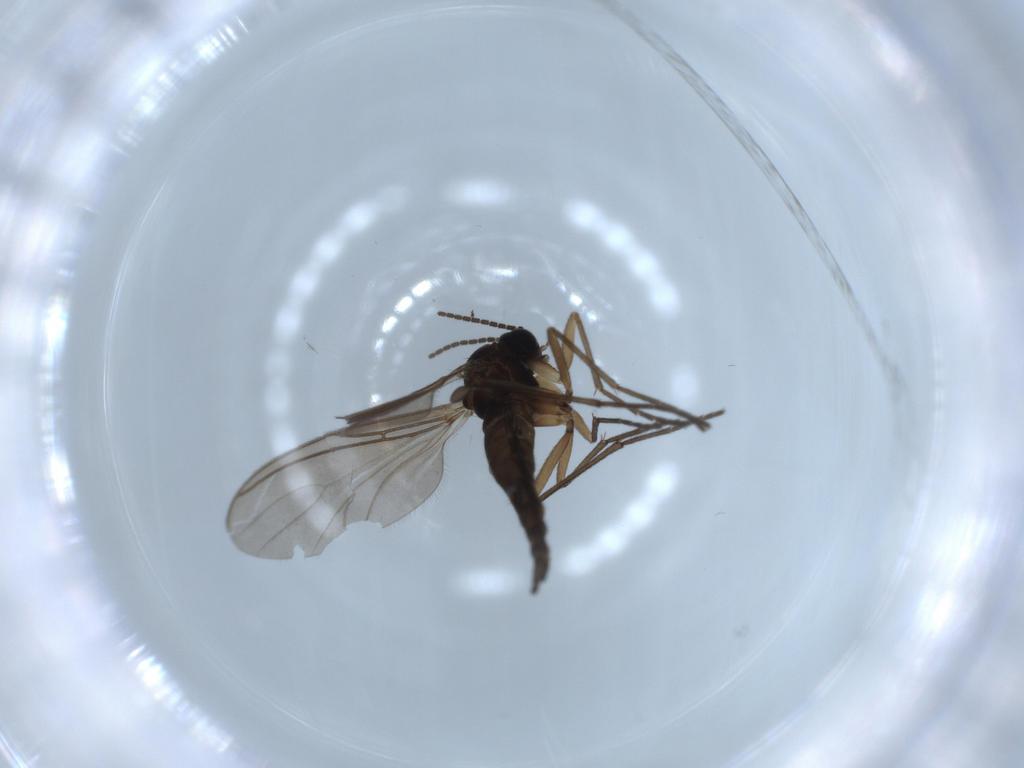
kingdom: Animalia
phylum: Arthropoda
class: Insecta
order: Diptera
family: Sciaridae
